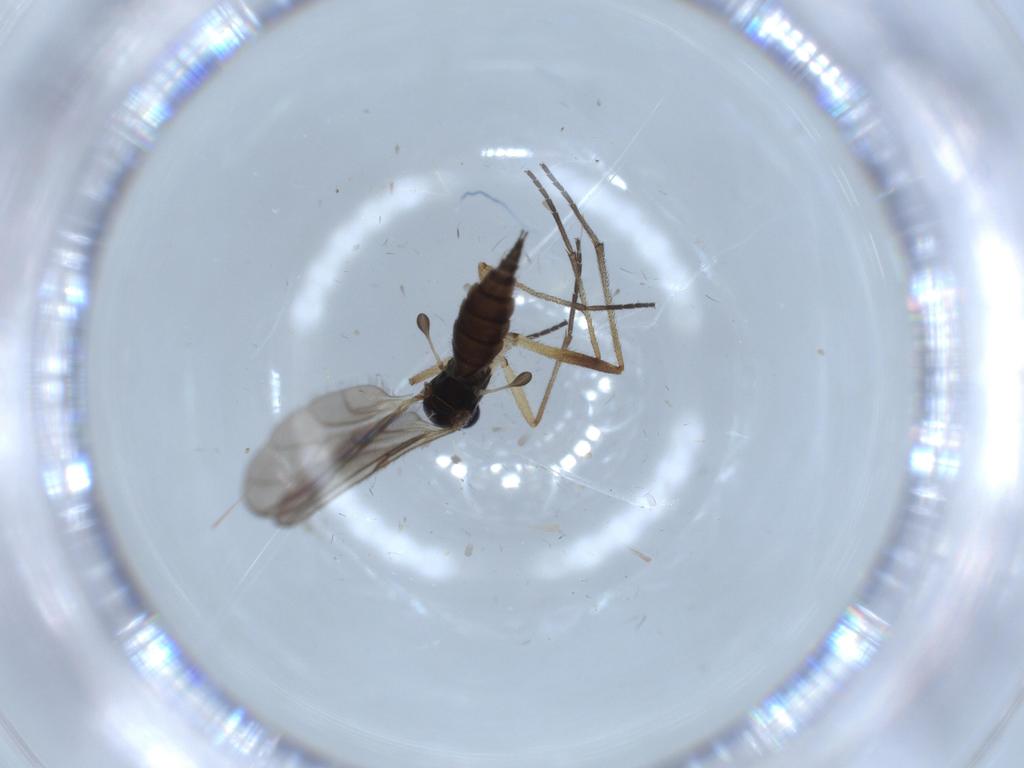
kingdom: Animalia
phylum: Arthropoda
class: Insecta
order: Diptera
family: Sciaridae
